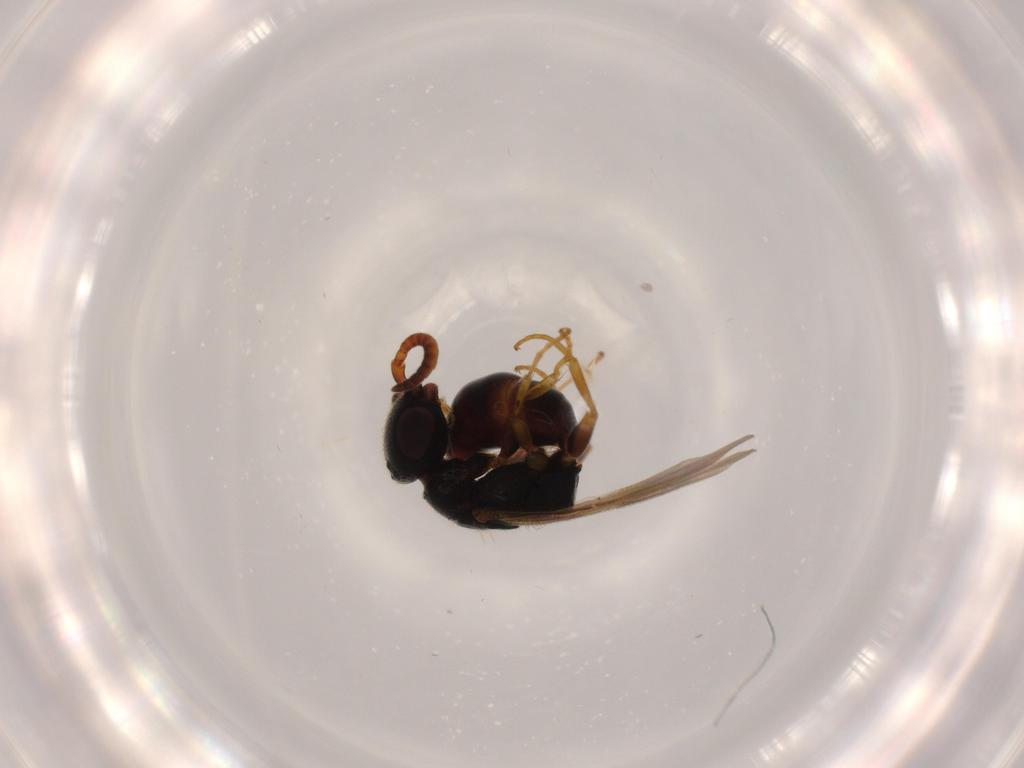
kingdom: Animalia
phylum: Arthropoda
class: Insecta
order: Hymenoptera
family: Bethylidae
